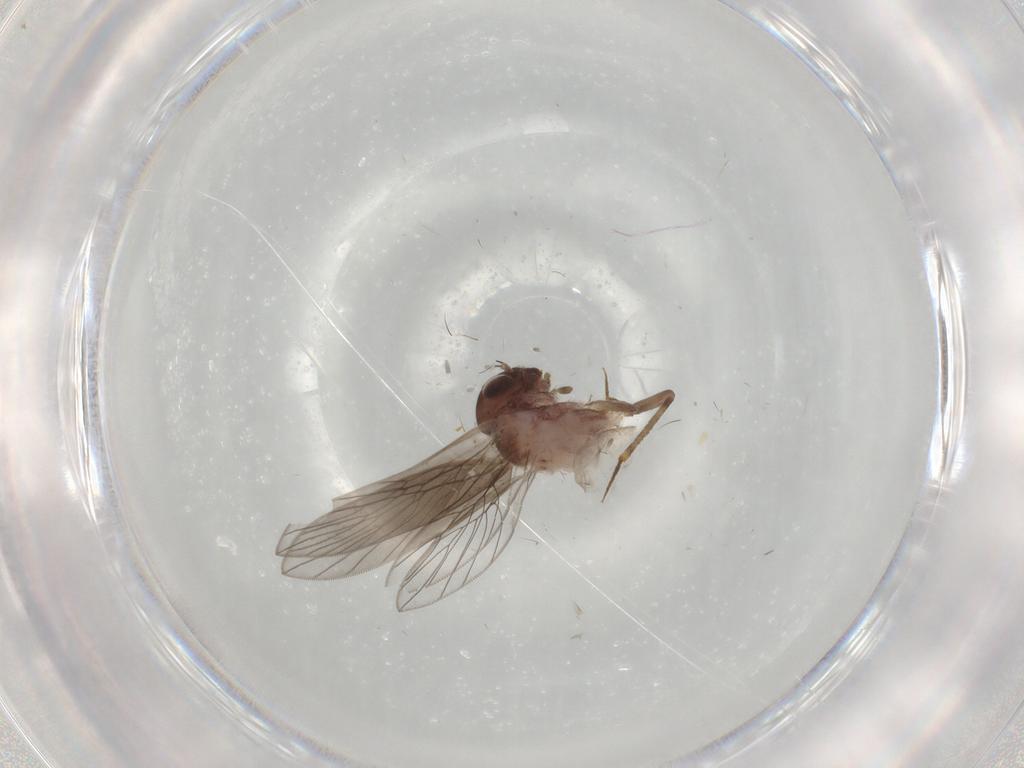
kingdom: Animalia
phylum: Arthropoda
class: Insecta
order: Psocodea
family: Lepidopsocidae
